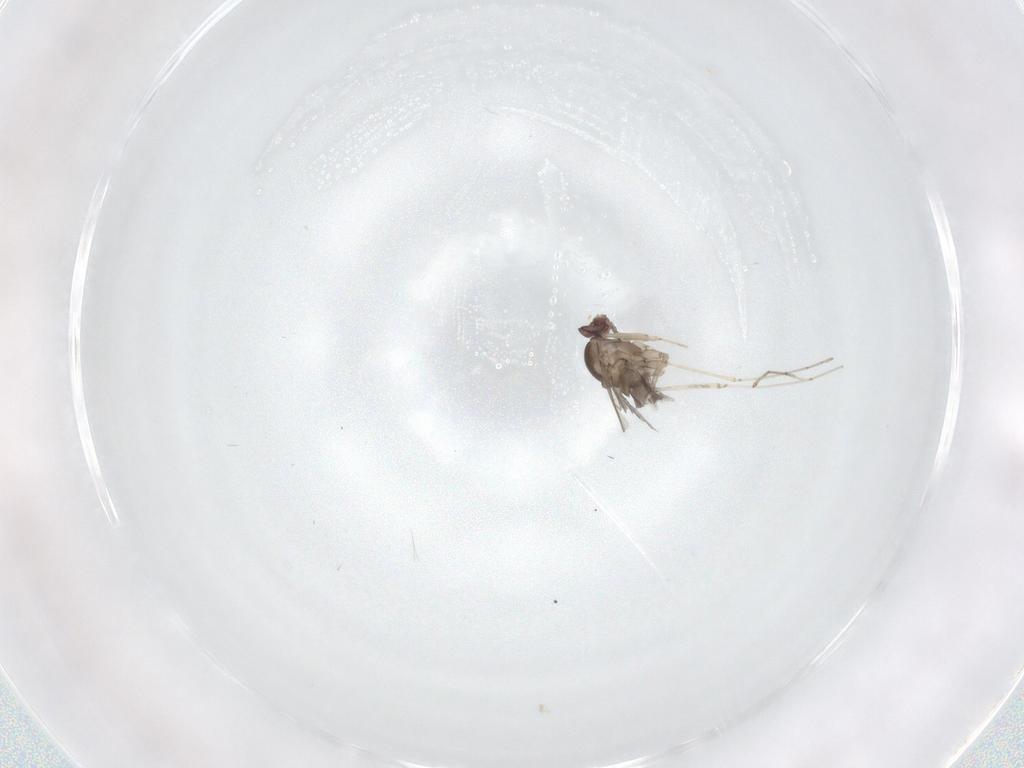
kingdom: Animalia
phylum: Arthropoda
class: Insecta
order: Diptera
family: Cecidomyiidae
